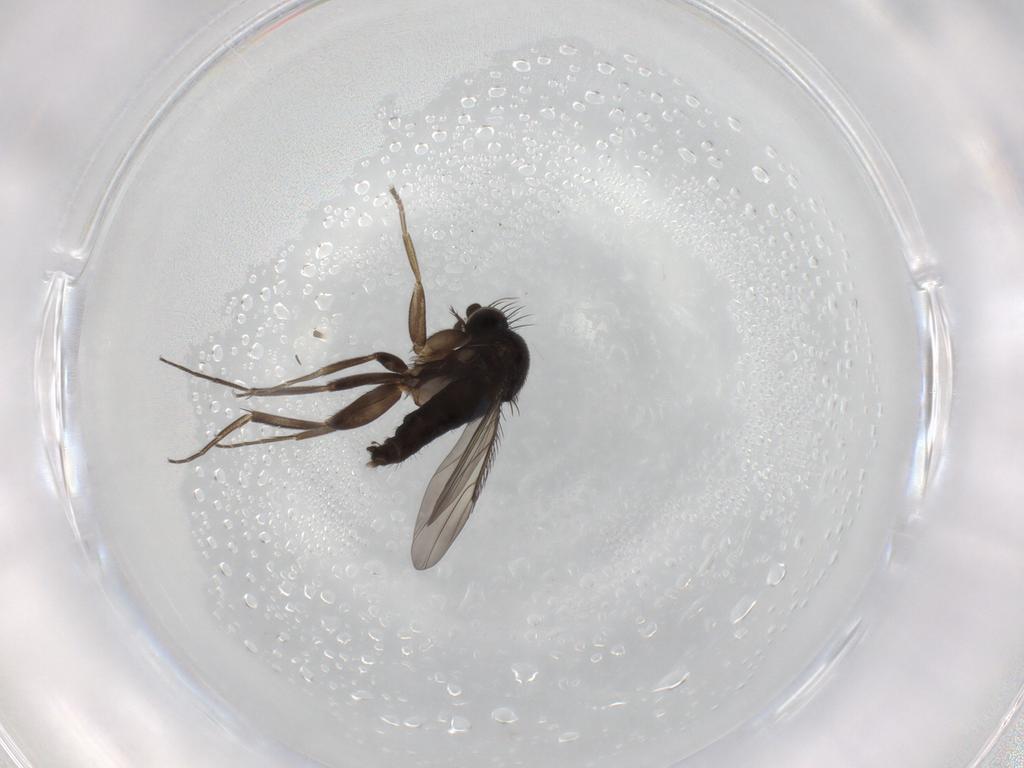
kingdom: Animalia
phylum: Arthropoda
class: Insecta
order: Diptera
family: Phoridae
